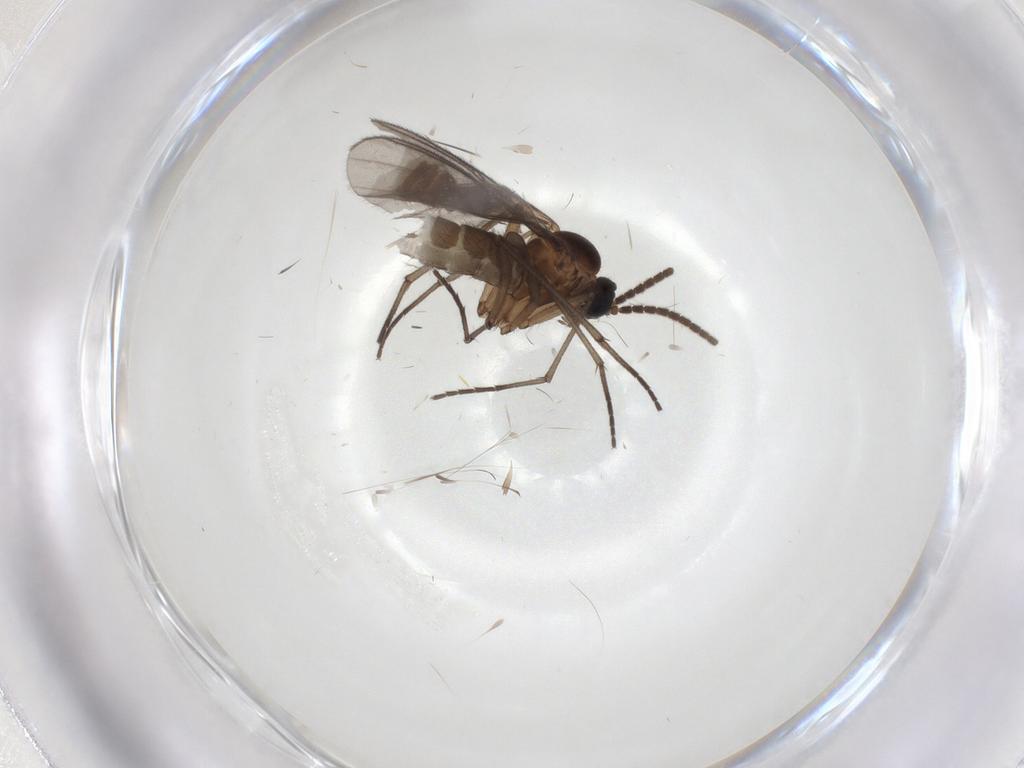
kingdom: Animalia
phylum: Arthropoda
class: Insecta
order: Diptera
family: Sciaridae
